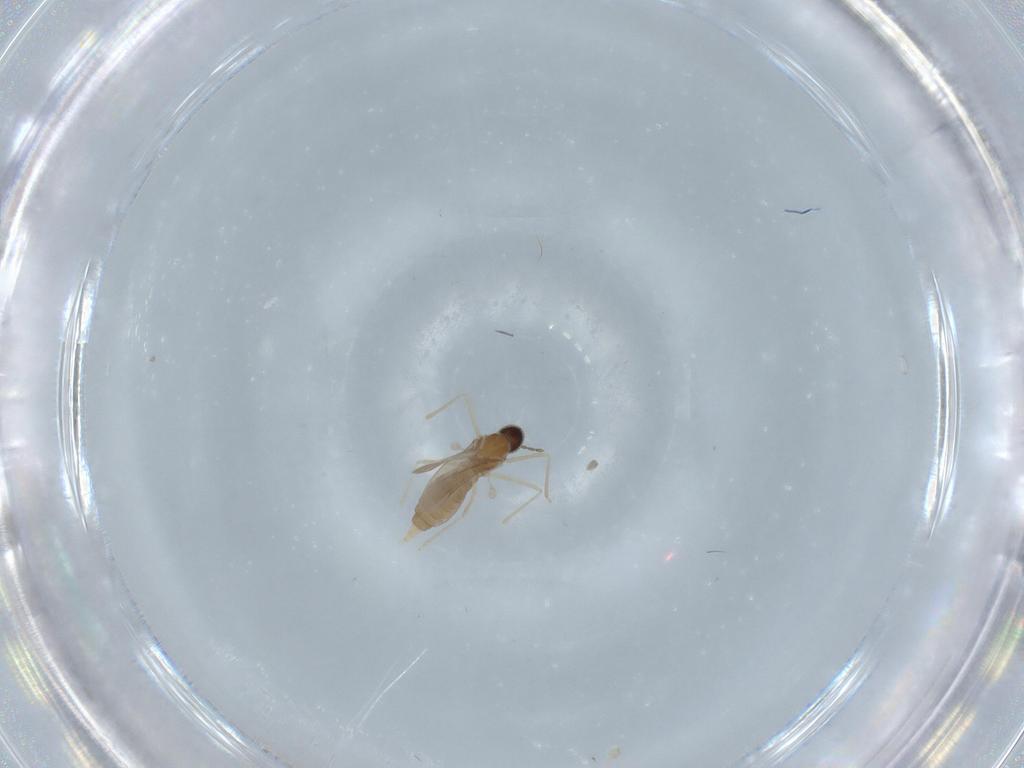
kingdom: Animalia
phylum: Arthropoda
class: Insecta
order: Diptera
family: Cecidomyiidae
